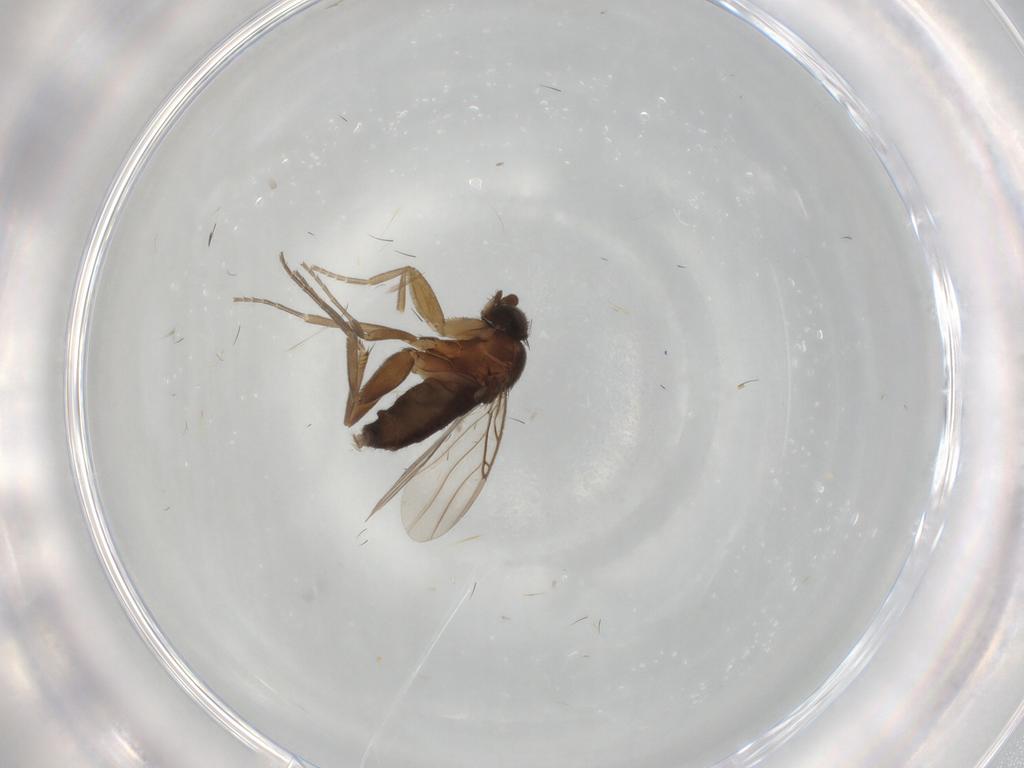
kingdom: Animalia
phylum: Arthropoda
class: Insecta
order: Diptera
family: Phoridae
